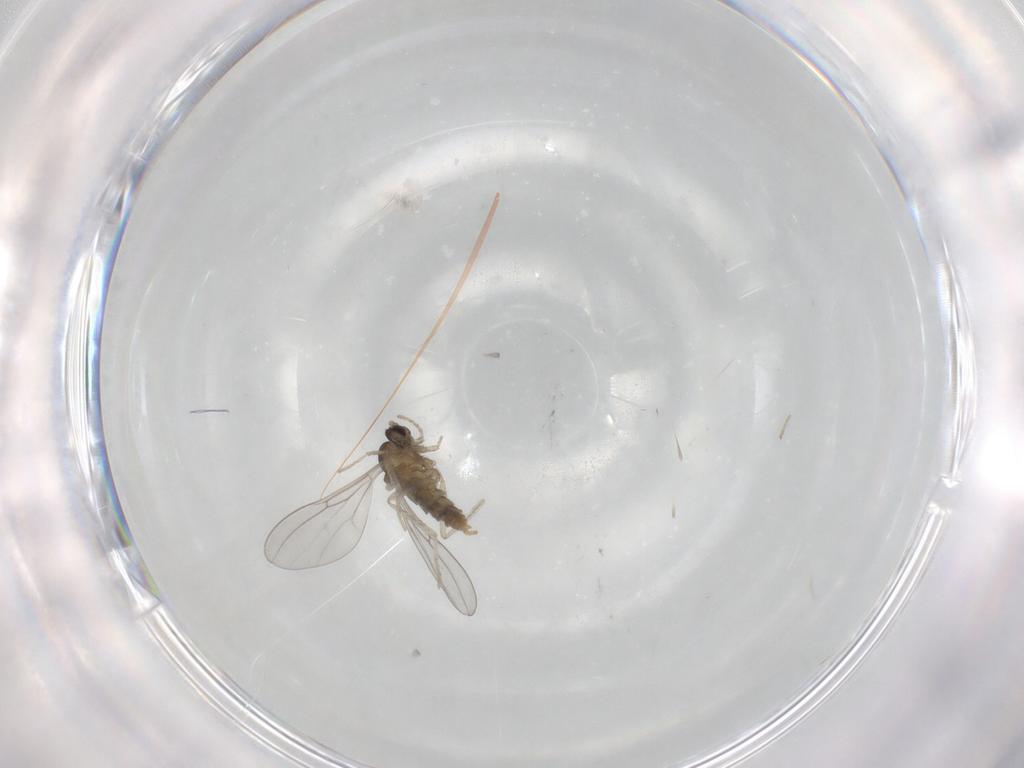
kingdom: Animalia
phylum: Arthropoda
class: Insecta
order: Diptera
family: Cecidomyiidae
